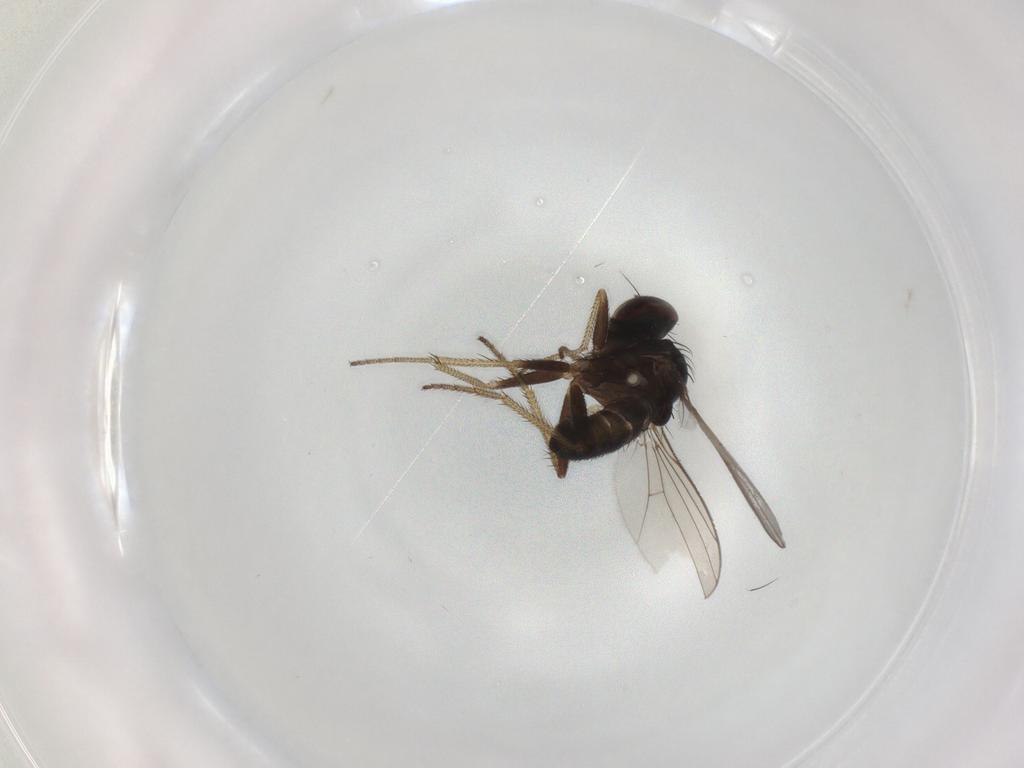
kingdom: Animalia
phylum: Arthropoda
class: Insecta
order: Diptera
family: Dolichopodidae
